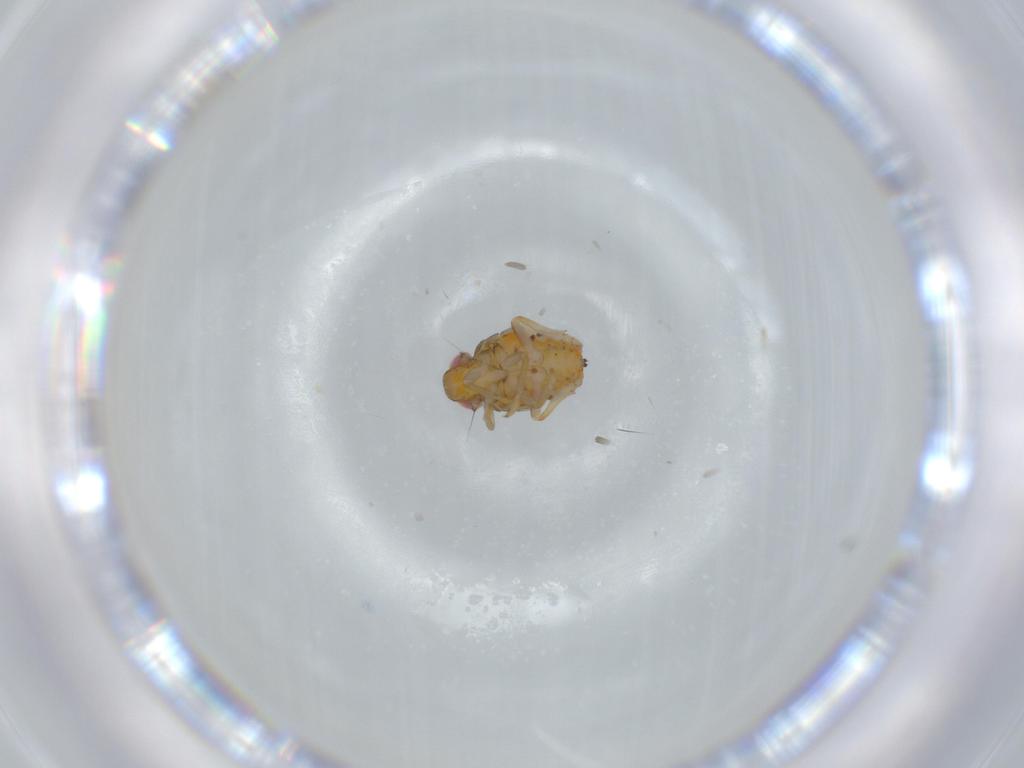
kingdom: Animalia
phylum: Arthropoda
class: Insecta
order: Hemiptera
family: Issidae
